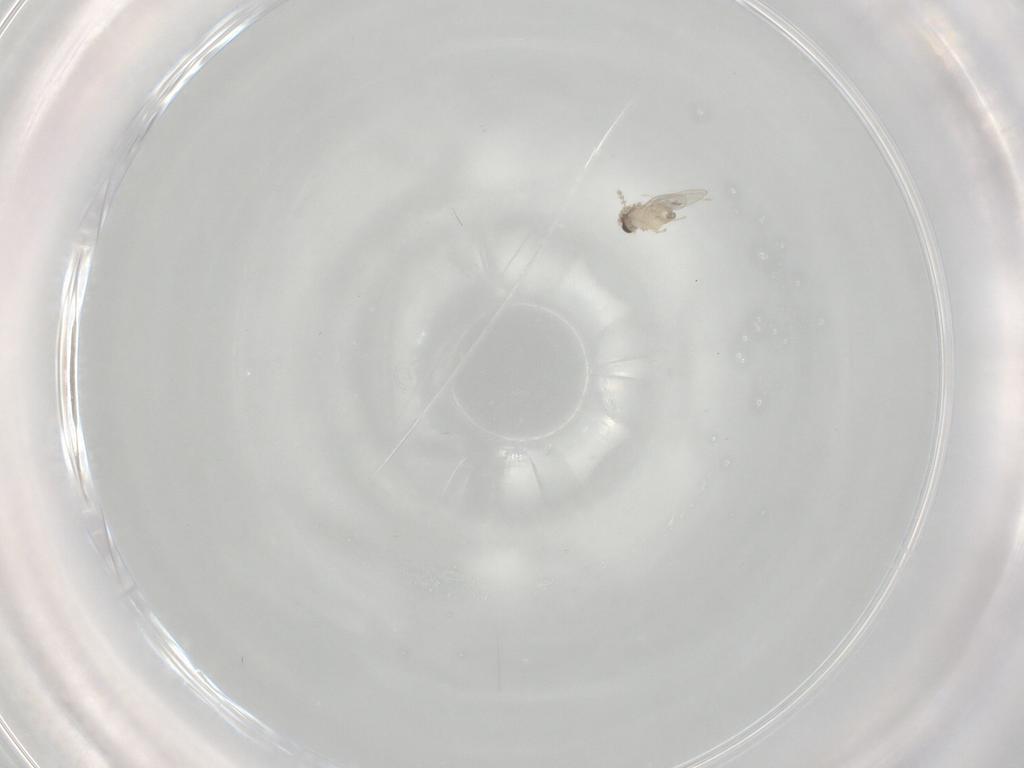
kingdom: Animalia
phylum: Arthropoda
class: Insecta
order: Diptera
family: Cecidomyiidae
